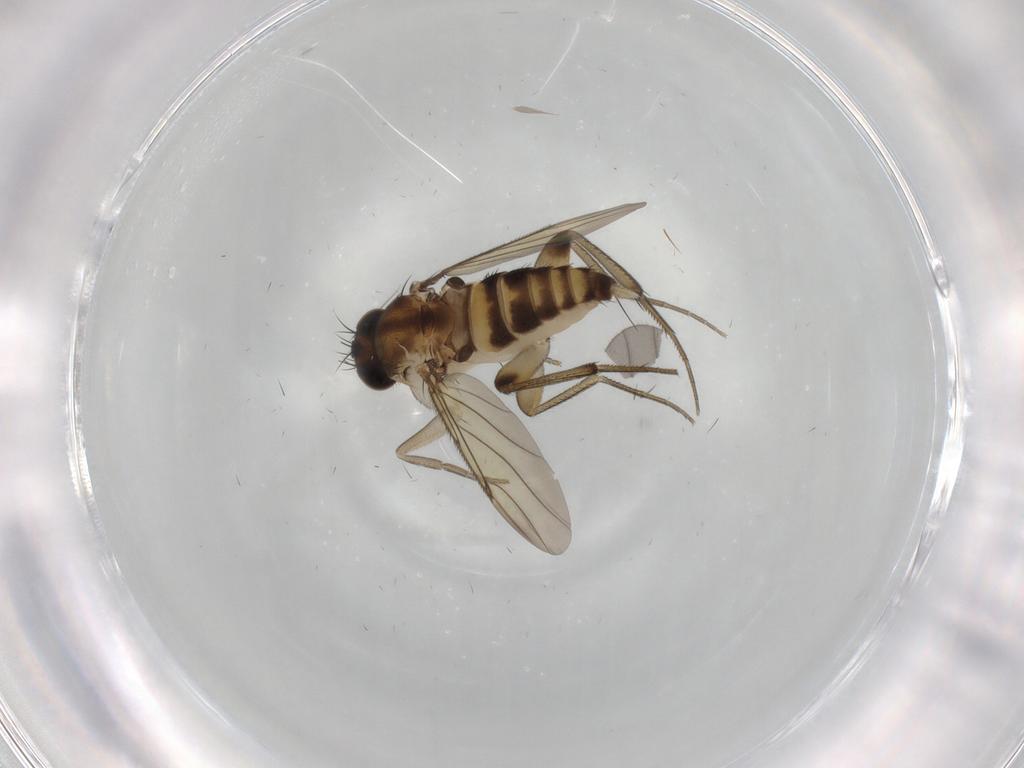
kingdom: Animalia
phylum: Arthropoda
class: Insecta
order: Diptera
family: Phoridae
